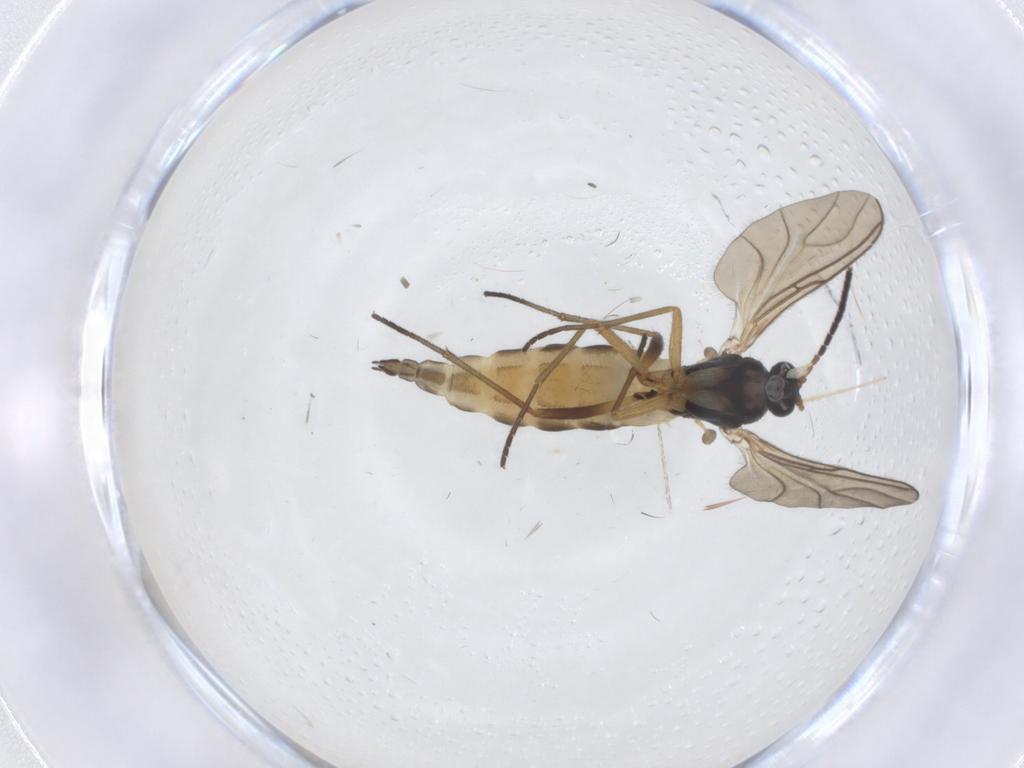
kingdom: Animalia
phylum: Arthropoda
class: Insecta
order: Diptera
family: Sciaridae
